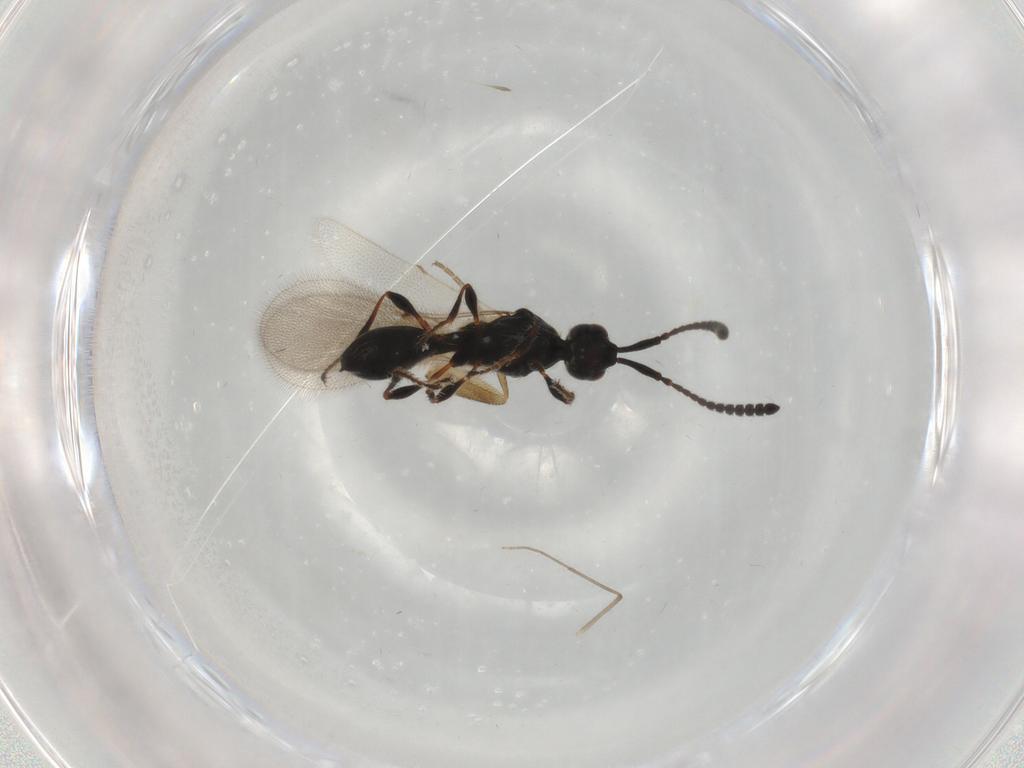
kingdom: Animalia
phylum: Arthropoda
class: Insecta
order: Diptera
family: Mythicomyiidae
